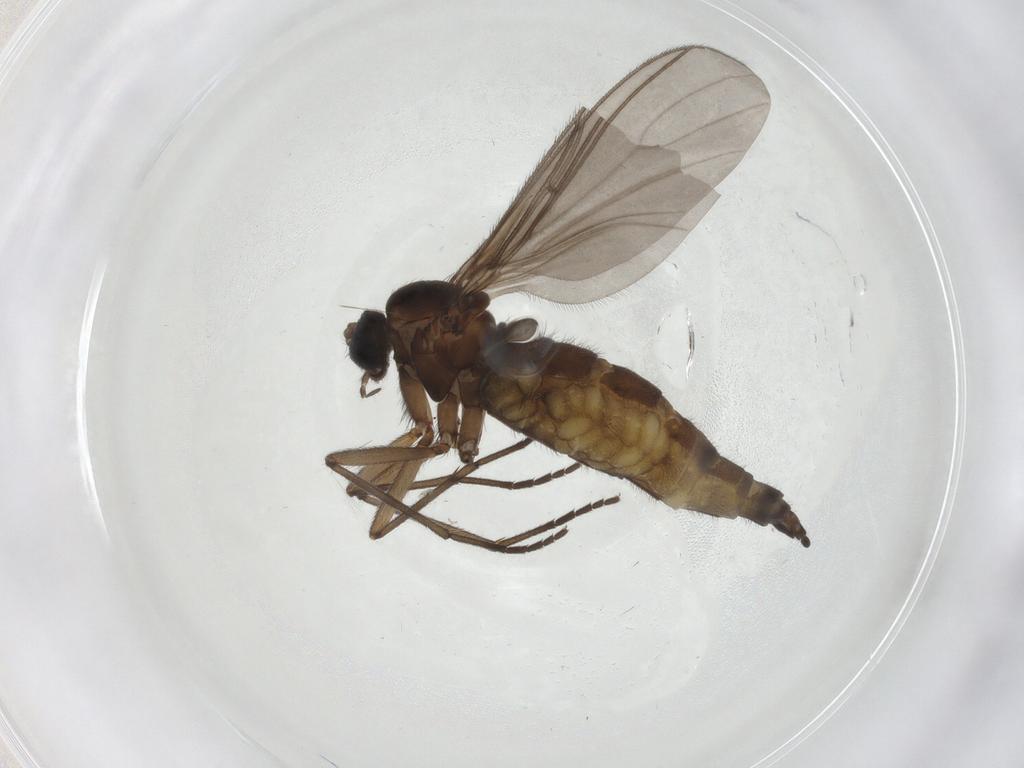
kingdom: Animalia
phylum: Arthropoda
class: Insecta
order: Diptera
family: Sciaridae
